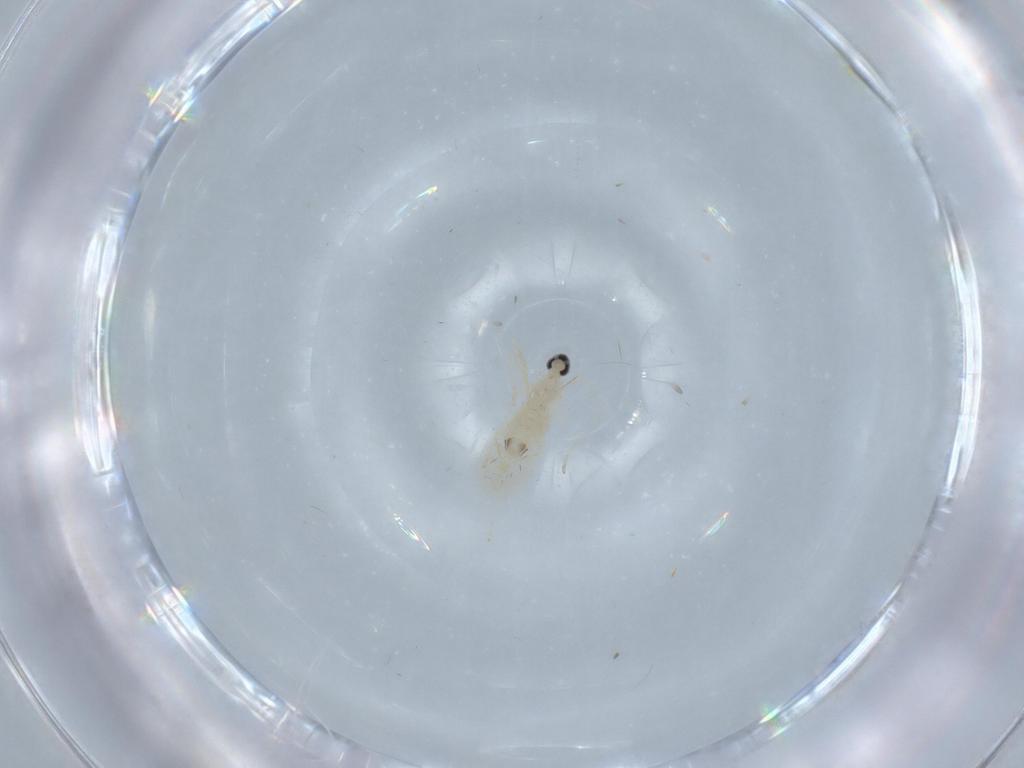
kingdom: Animalia
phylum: Arthropoda
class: Insecta
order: Diptera
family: Cecidomyiidae
